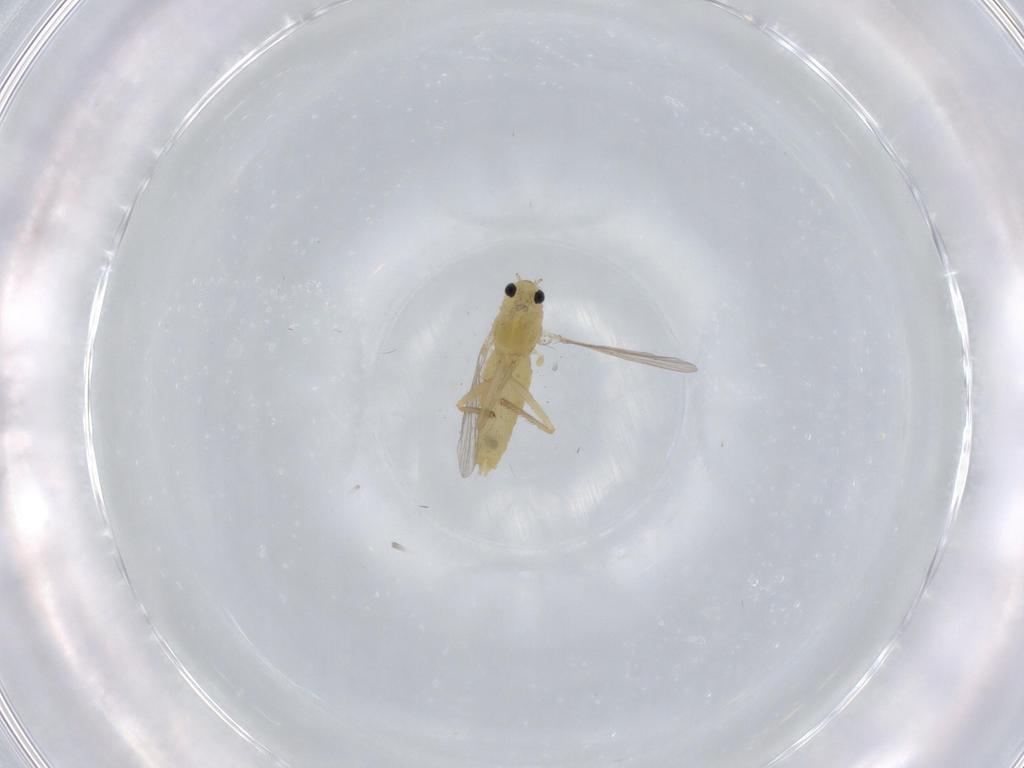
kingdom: Animalia
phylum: Arthropoda
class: Insecta
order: Diptera
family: Chironomidae
